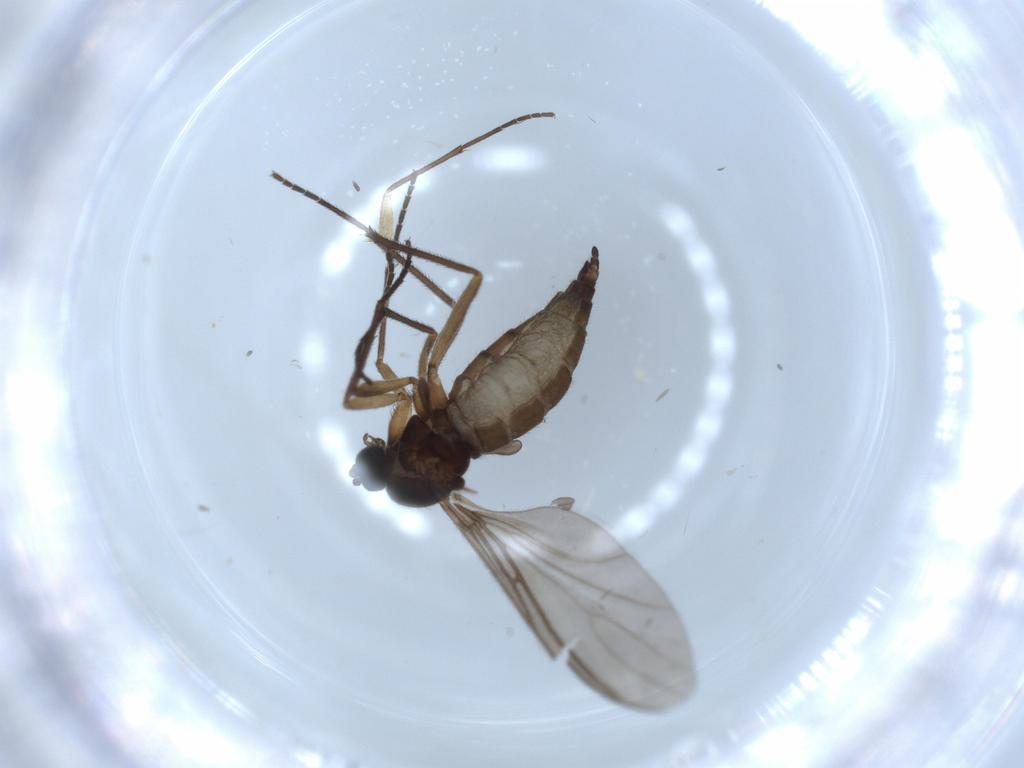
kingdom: Animalia
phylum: Arthropoda
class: Insecta
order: Diptera
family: Sciaridae
